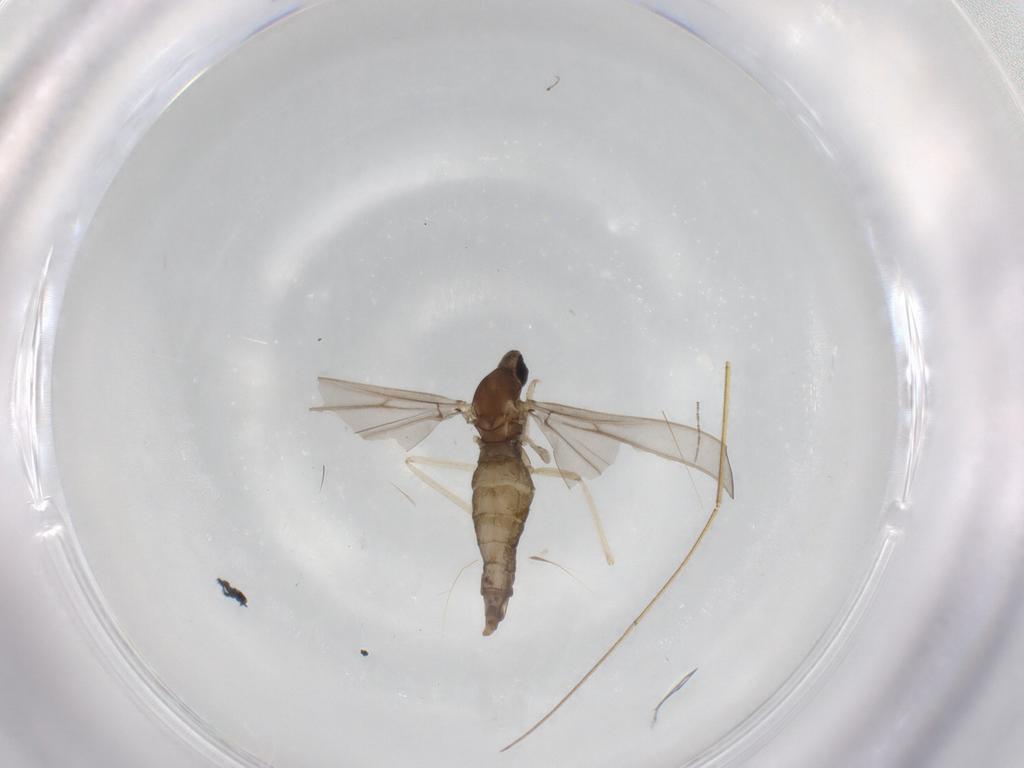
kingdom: Animalia
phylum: Arthropoda
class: Insecta
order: Diptera
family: Cecidomyiidae
